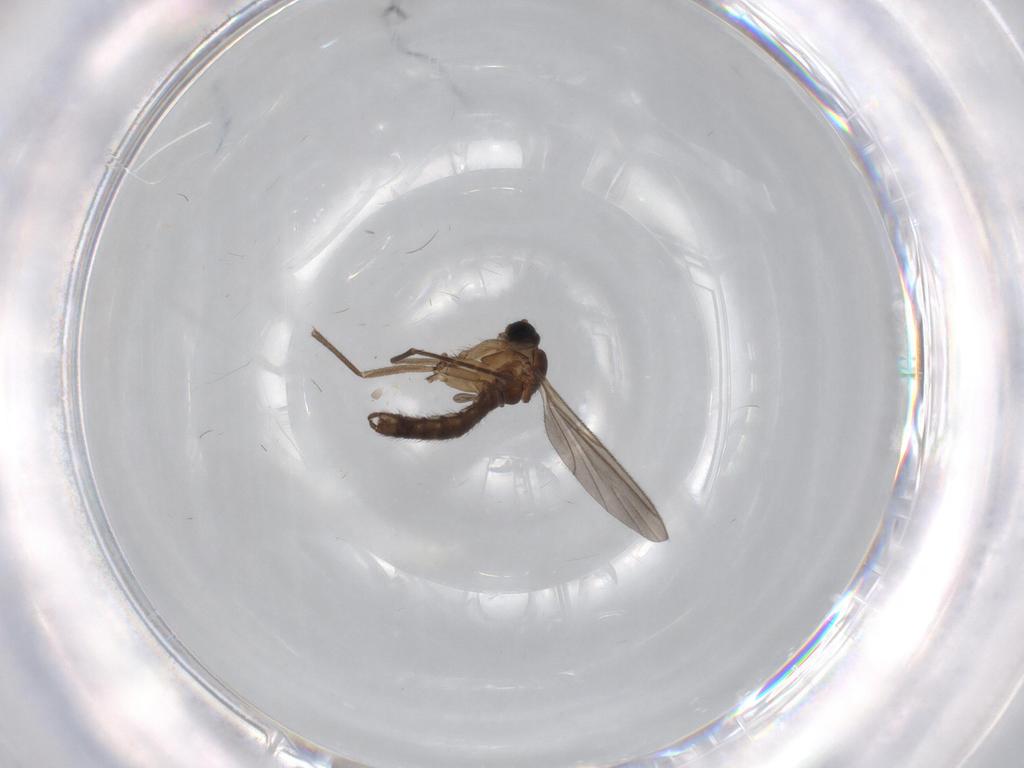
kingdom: Animalia
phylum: Arthropoda
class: Insecta
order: Diptera
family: Sciaridae
